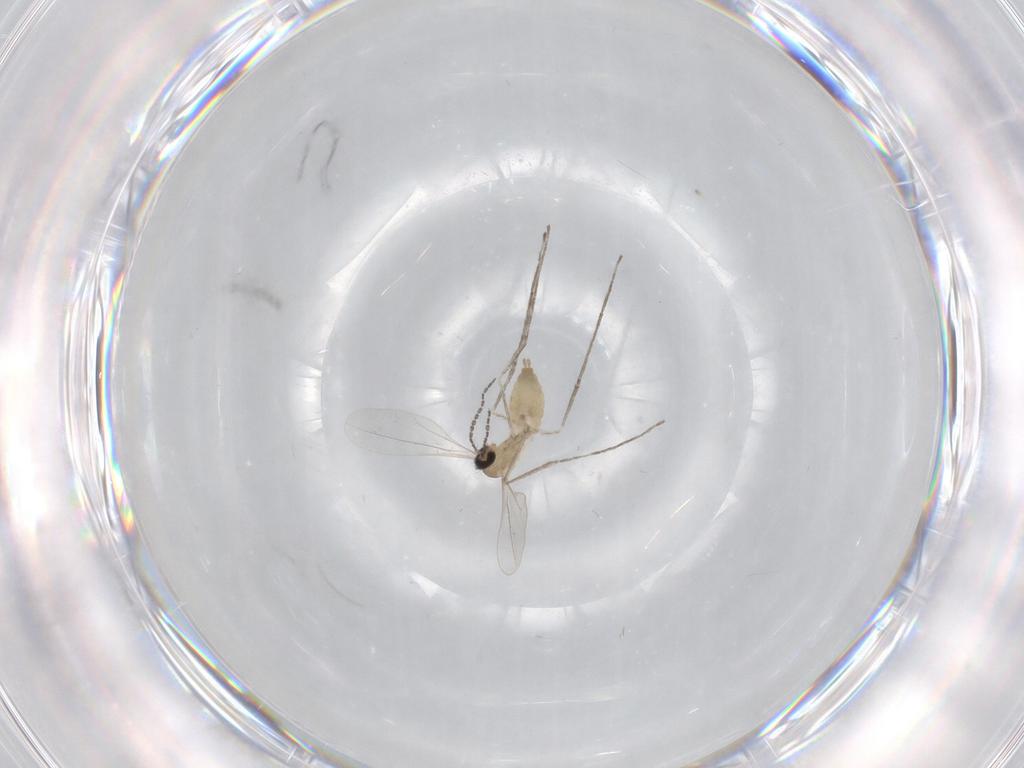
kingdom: Animalia
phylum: Arthropoda
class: Insecta
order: Diptera
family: Cecidomyiidae
